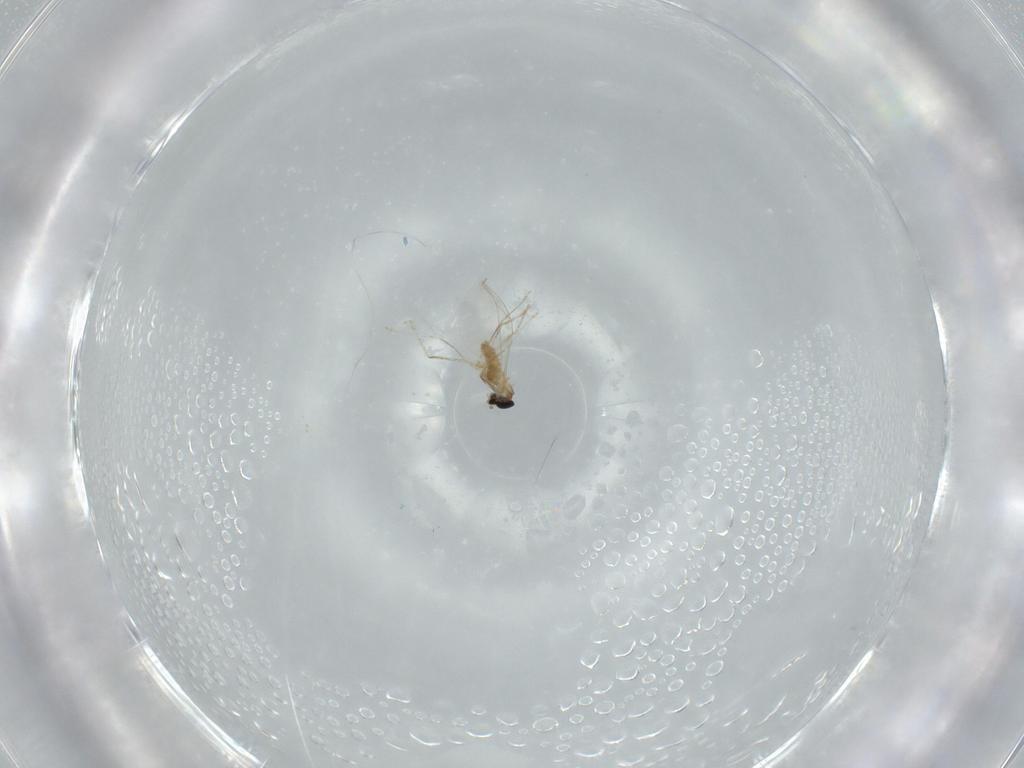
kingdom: Animalia
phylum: Arthropoda
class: Insecta
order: Diptera
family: Cecidomyiidae
